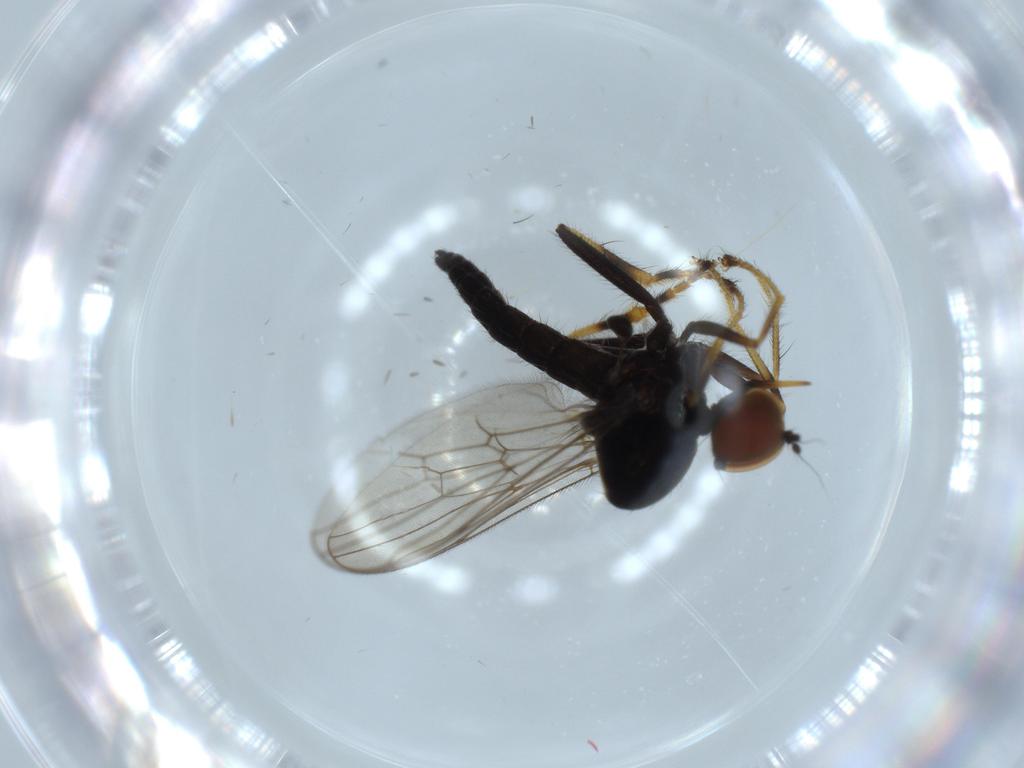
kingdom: Animalia
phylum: Arthropoda
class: Insecta
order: Diptera
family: Hybotidae
